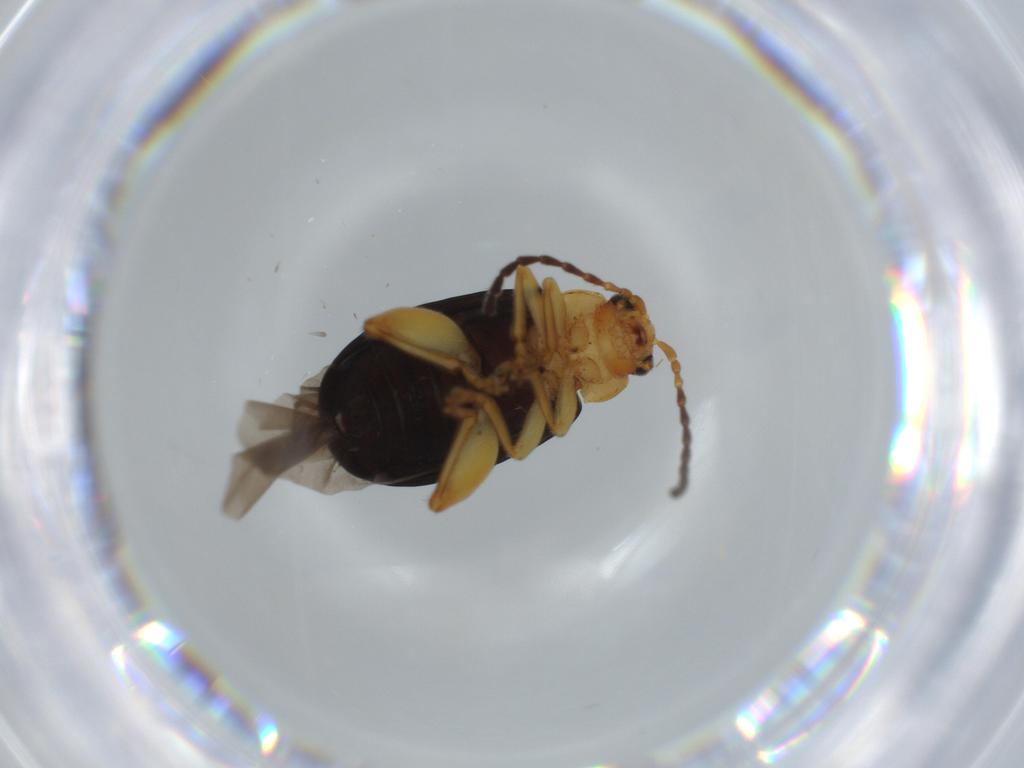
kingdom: Animalia
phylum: Arthropoda
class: Insecta
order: Coleoptera
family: Chrysomelidae
